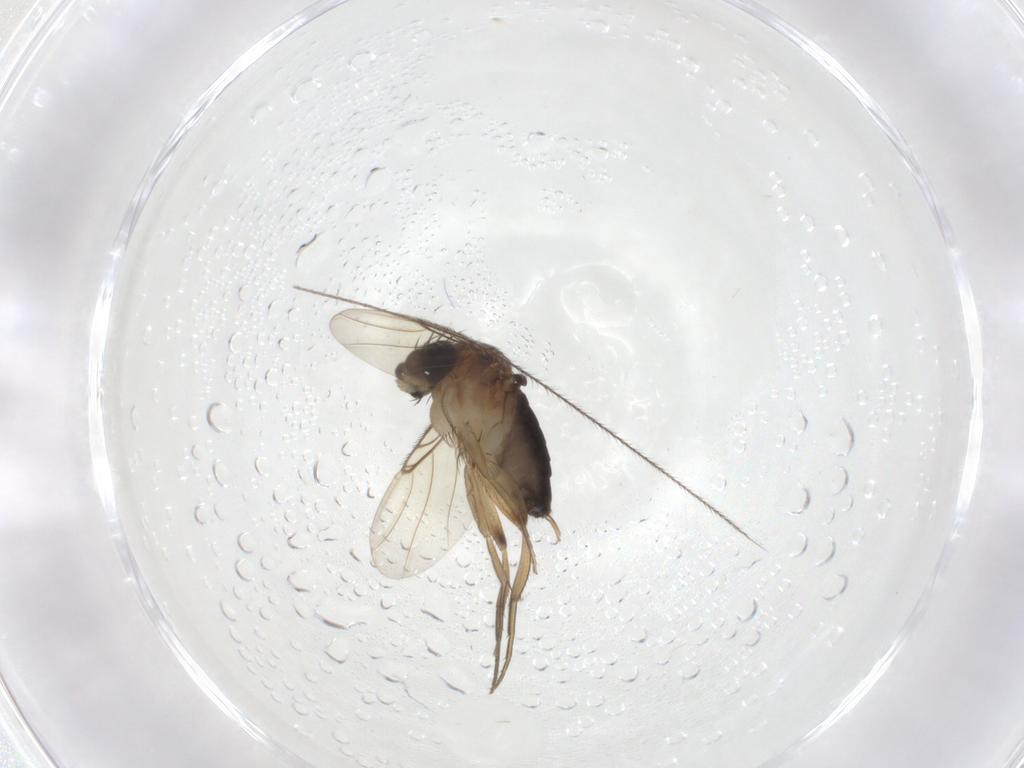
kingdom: Animalia
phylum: Arthropoda
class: Insecta
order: Diptera
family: Phoridae
